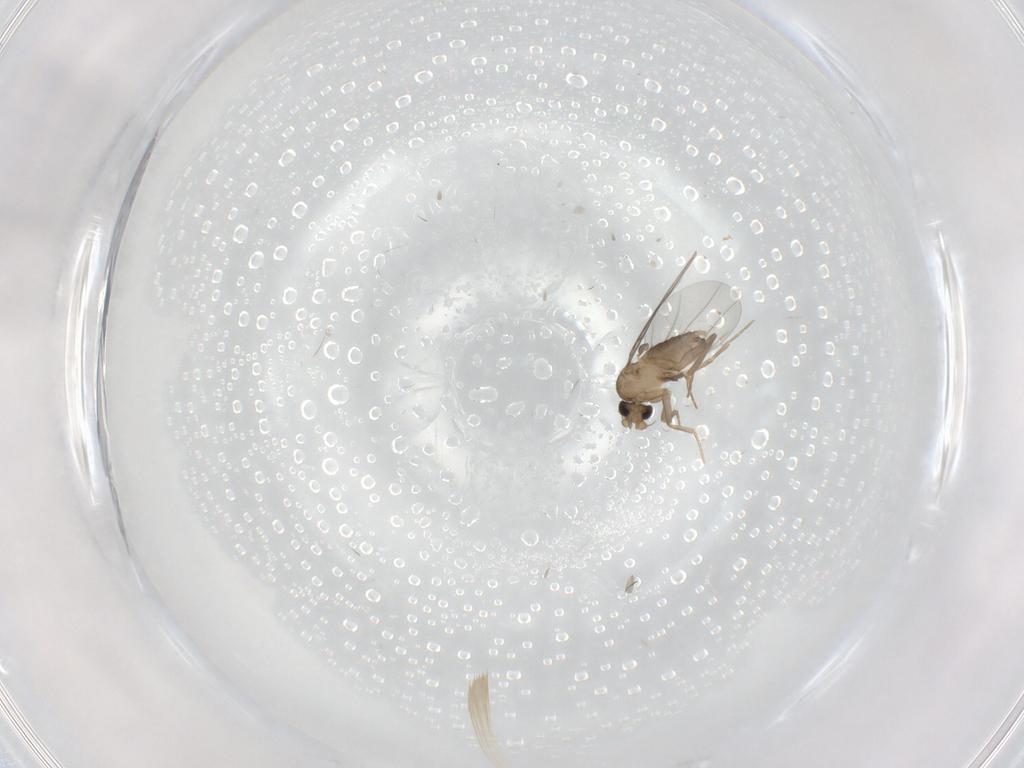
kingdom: Animalia
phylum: Arthropoda
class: Insecta
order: Diptera
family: Cecidomyiidae
